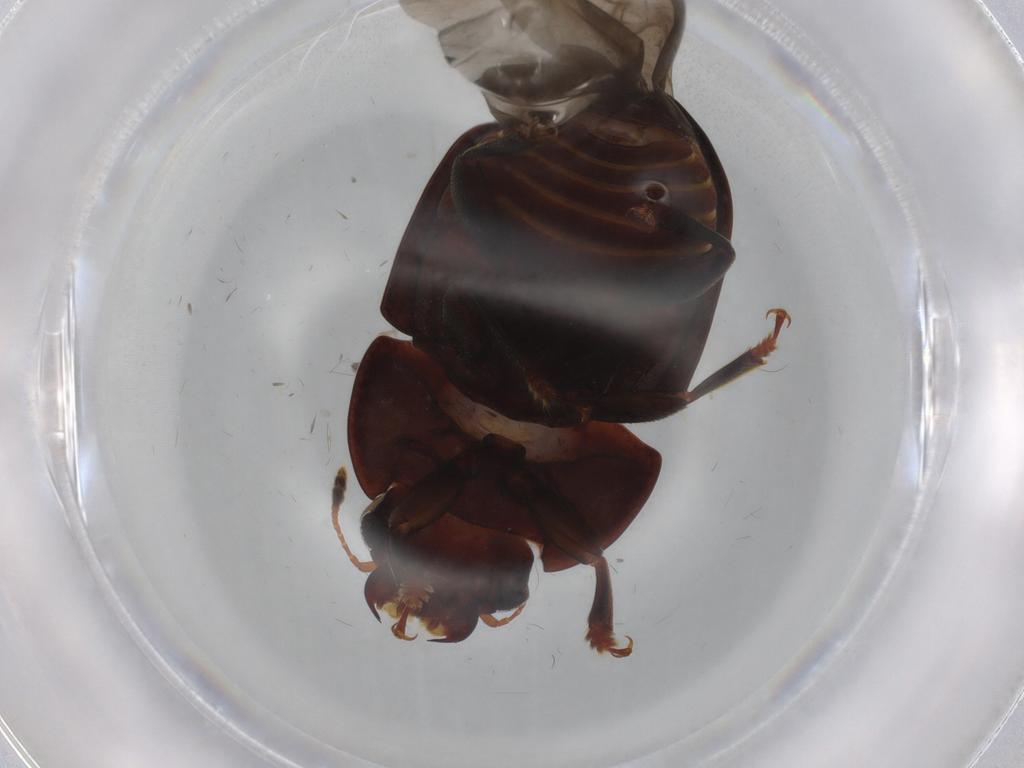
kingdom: Animalia
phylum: Arthropoda
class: Insecta
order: Coleoptera
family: Nitidulidae
